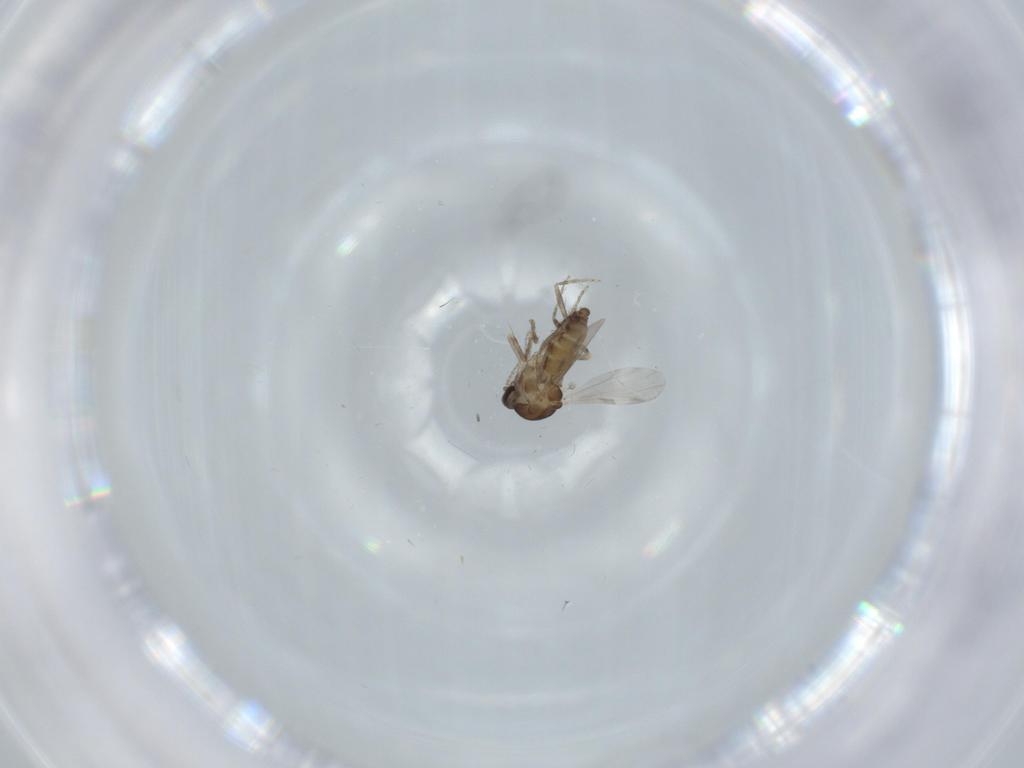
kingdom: Animalia
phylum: Arthropoda
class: Insecta
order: Diptera
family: Ceratopogonidae
